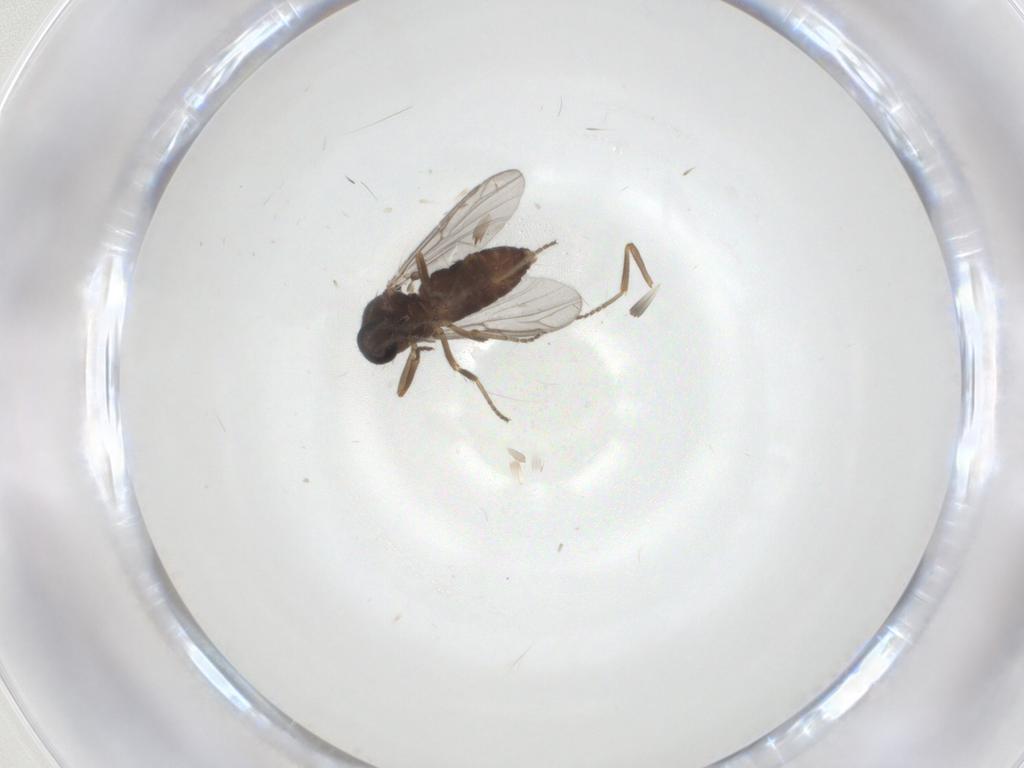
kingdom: Animalia
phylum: Arthropoda
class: Insecta
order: Diptera
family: Ceratopogonidae
